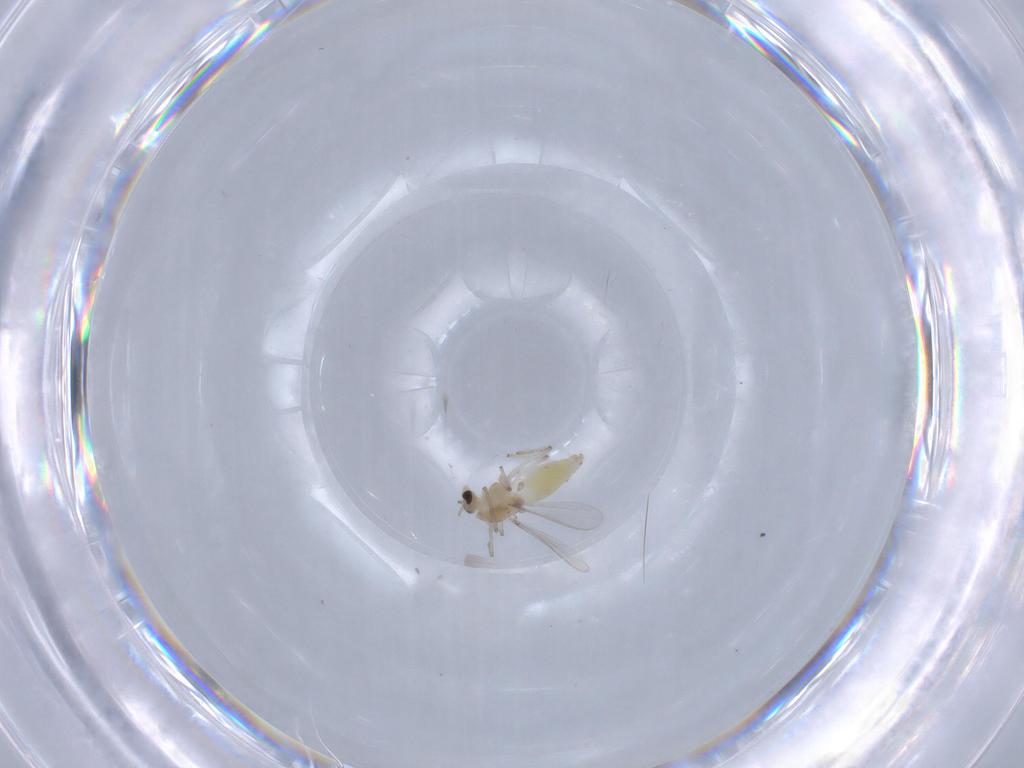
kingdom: Animalia
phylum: Arthropoda
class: Insecta
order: Diptera
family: Chironomidae
